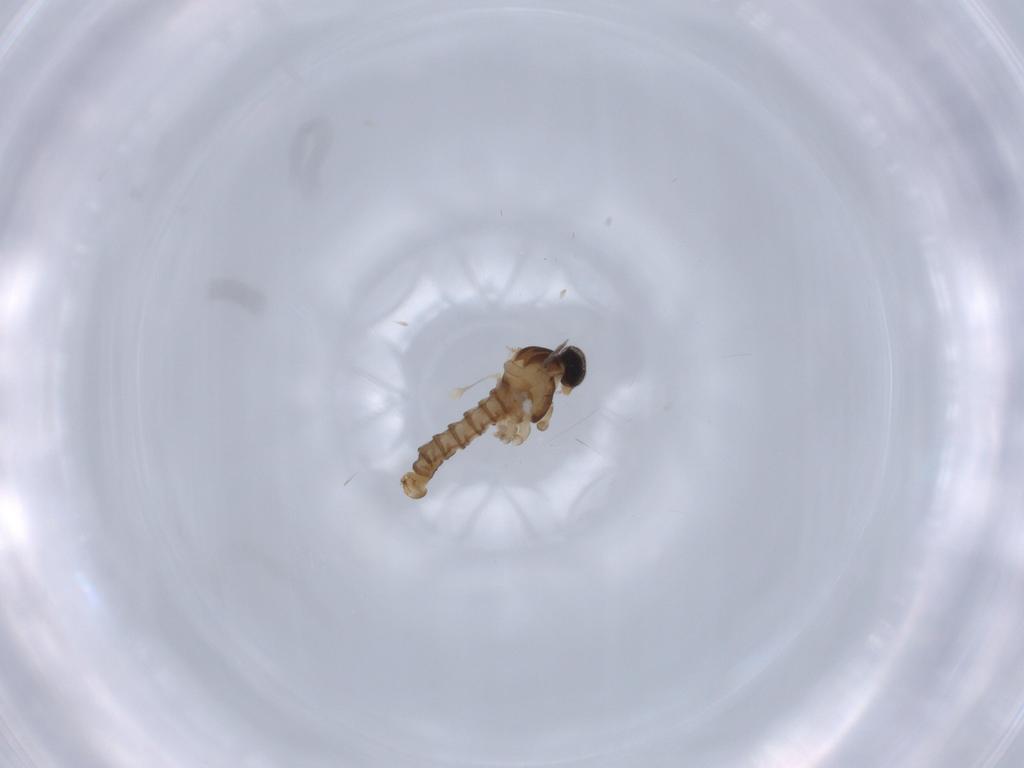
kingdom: Animalia
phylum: Arthropoda
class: Insecta
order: Diptera
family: Cecidomyiidae
